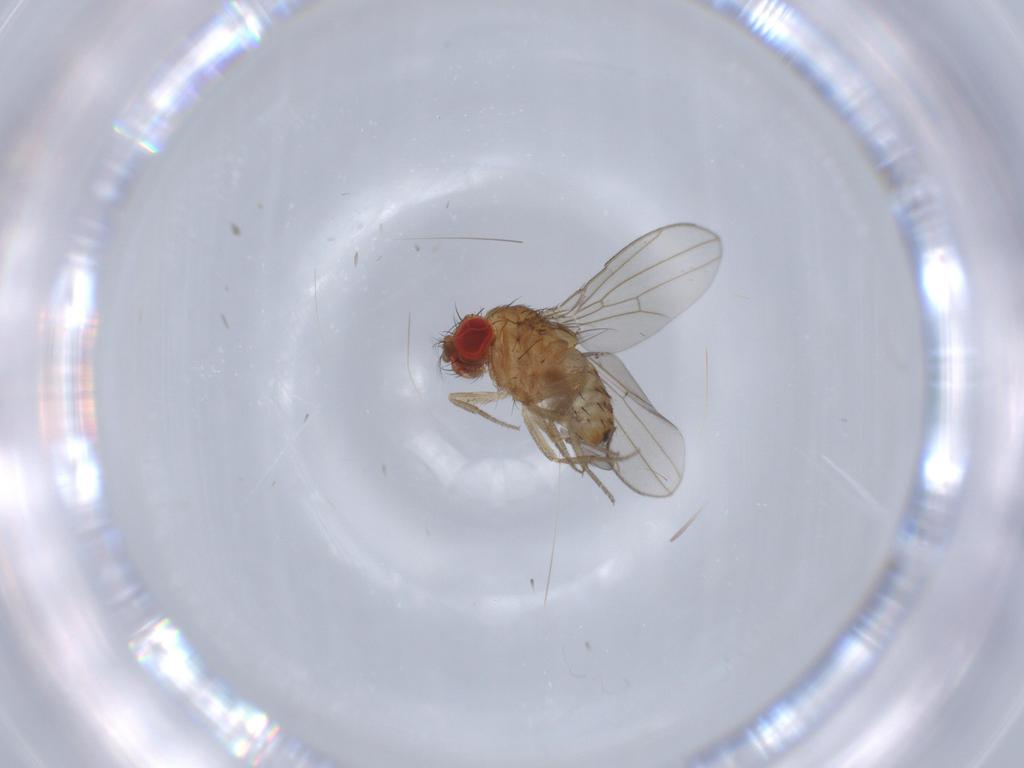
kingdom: Animalia
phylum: Arthropoda
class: Insecta
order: Diptera
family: Drosophilidae
